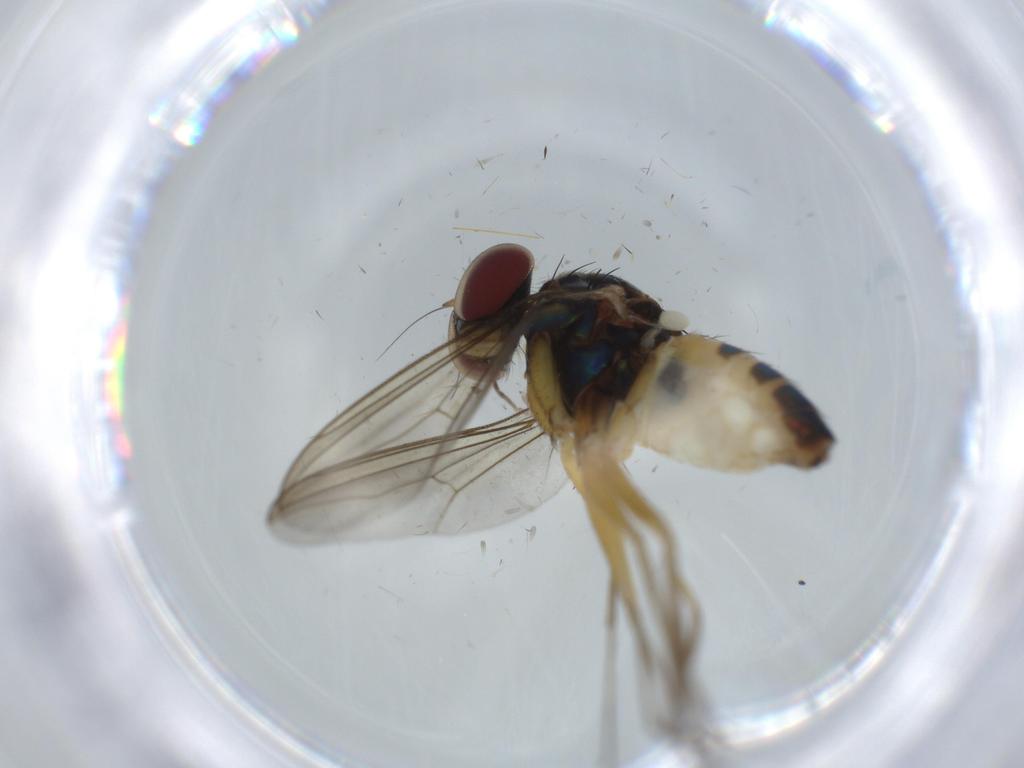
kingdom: Animalia
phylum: Arthropoda
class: Insecta
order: Diptera
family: Dolichopodidae
